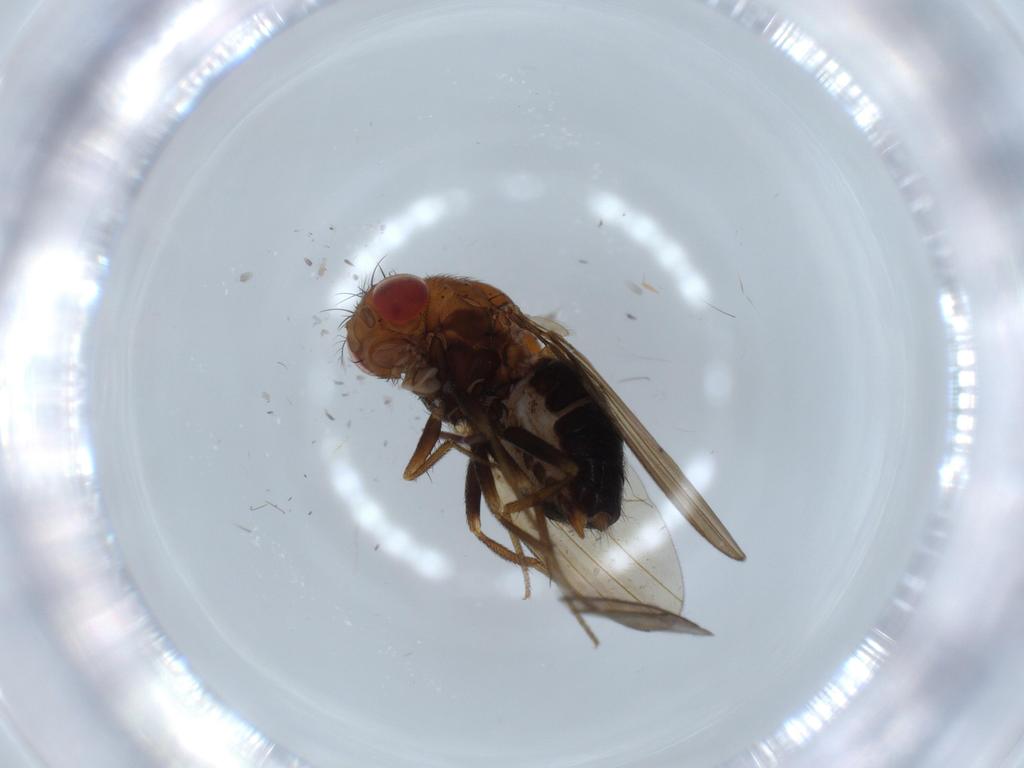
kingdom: Animalia
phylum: Arthropoda
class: Insecta
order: Diptera
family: Drosophilidae
